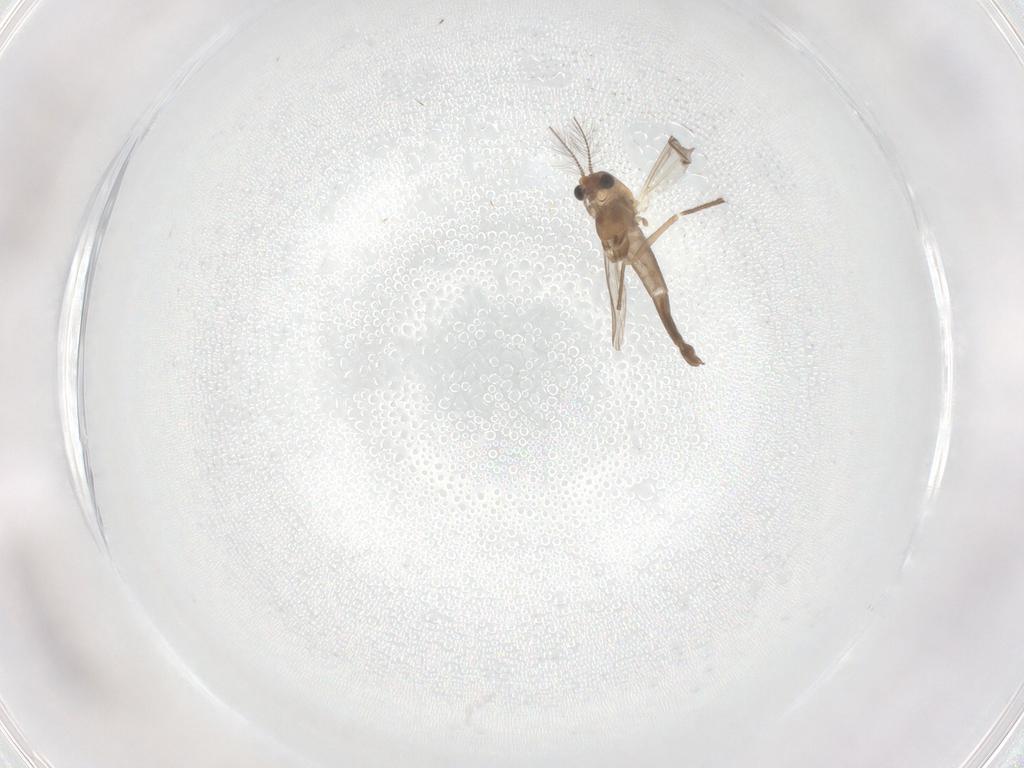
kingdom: Animalia
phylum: Arthropoda
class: Insecta
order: Diptera
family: Chironomidae
